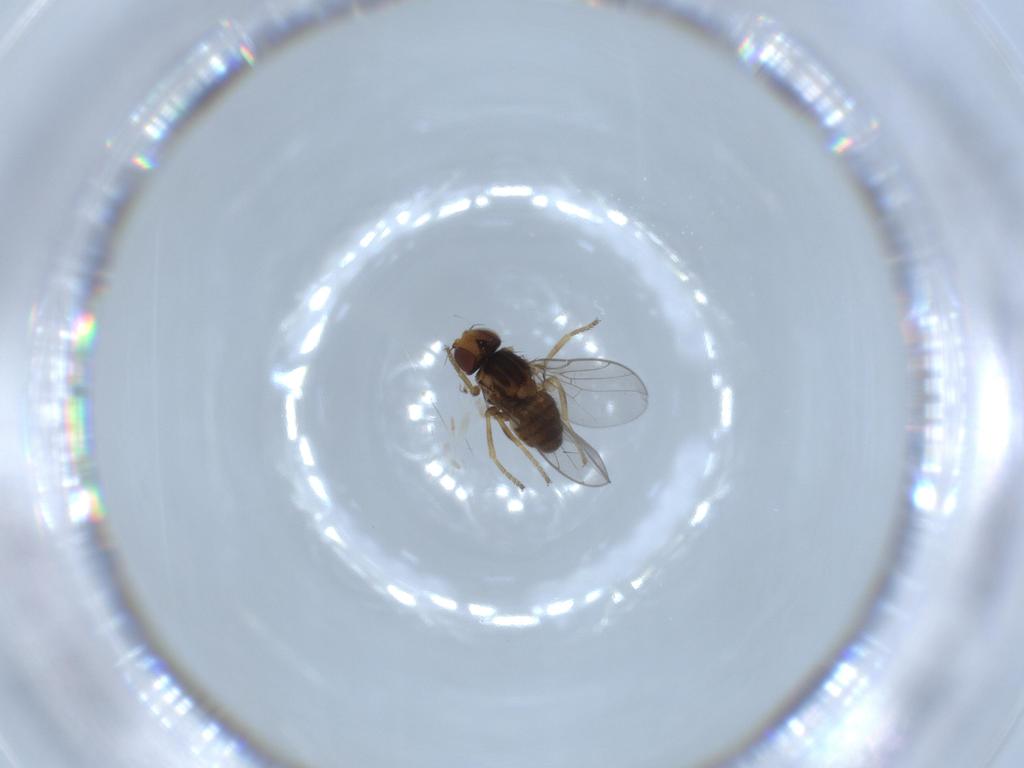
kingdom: Animalia
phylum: Arthropoda
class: Insecta
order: Diptera
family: Chloropidae
